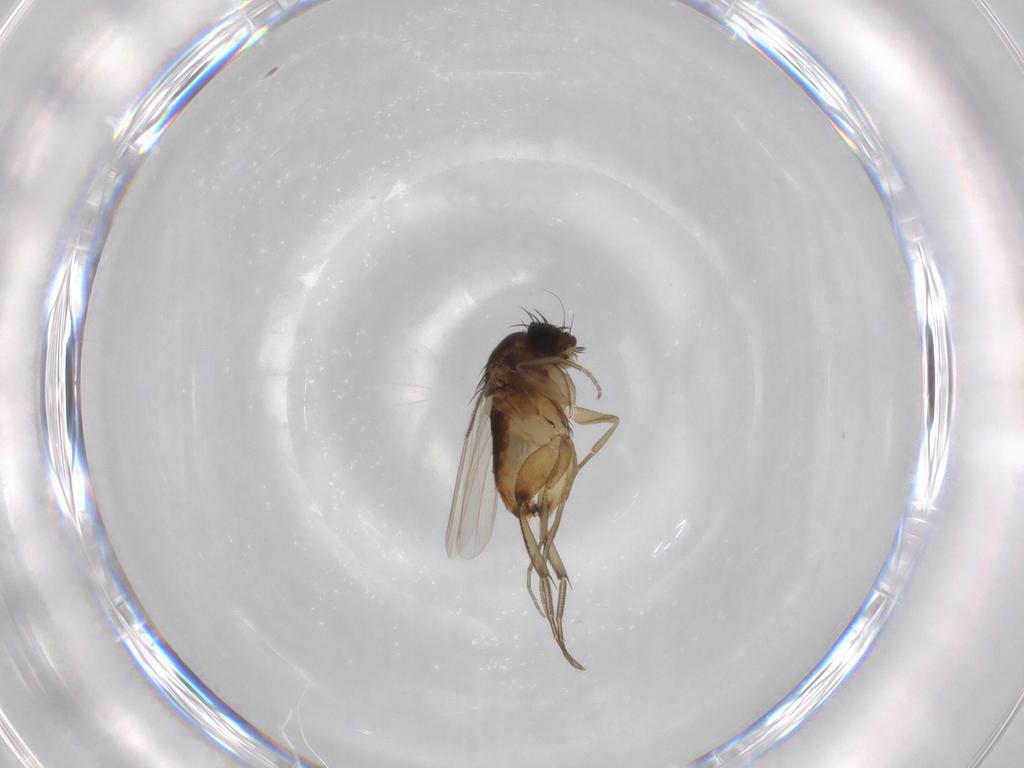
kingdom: Animalia
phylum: Arthropoda
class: Insecta
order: Diptera
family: Phoridae
